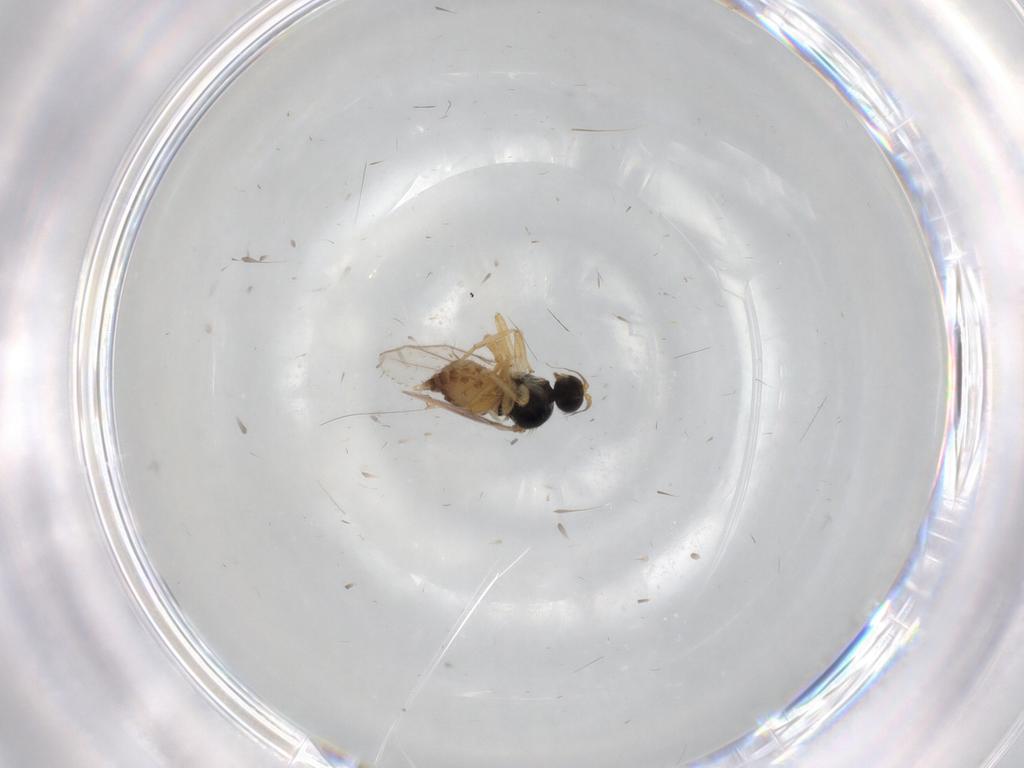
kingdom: Animalia
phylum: Arthropoda
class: Insecta
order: Diptera
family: Hybotidae
